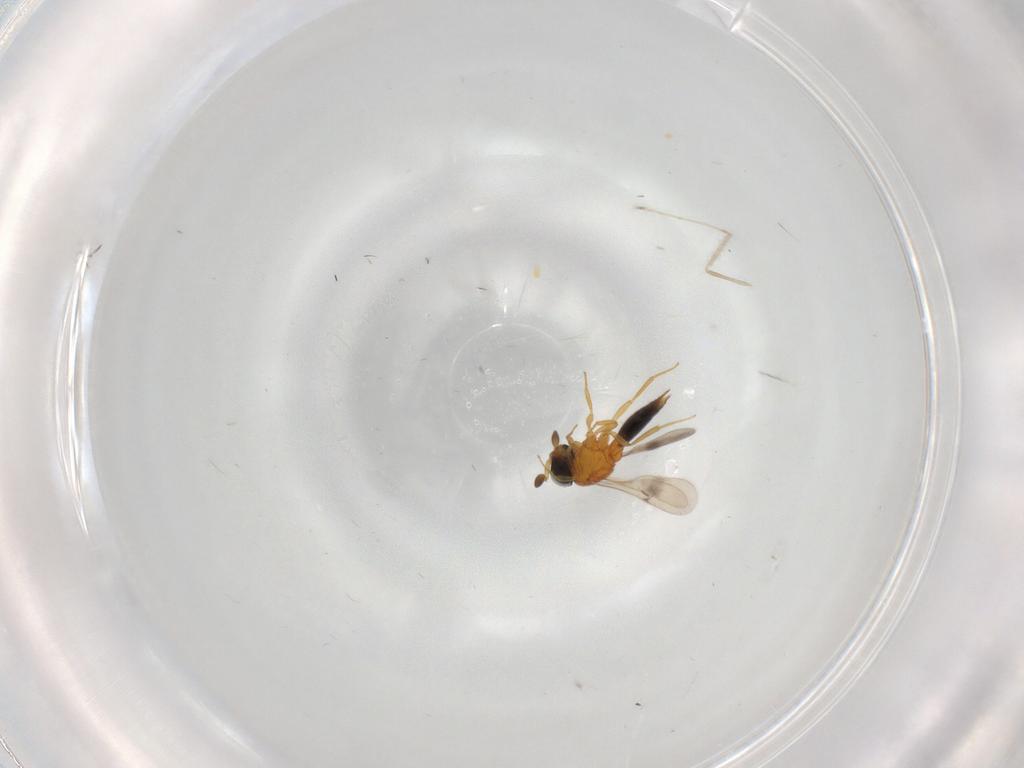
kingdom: Animalia
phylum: Arthropoda
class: Insecta
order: Hymenoptera
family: Scelionidae
